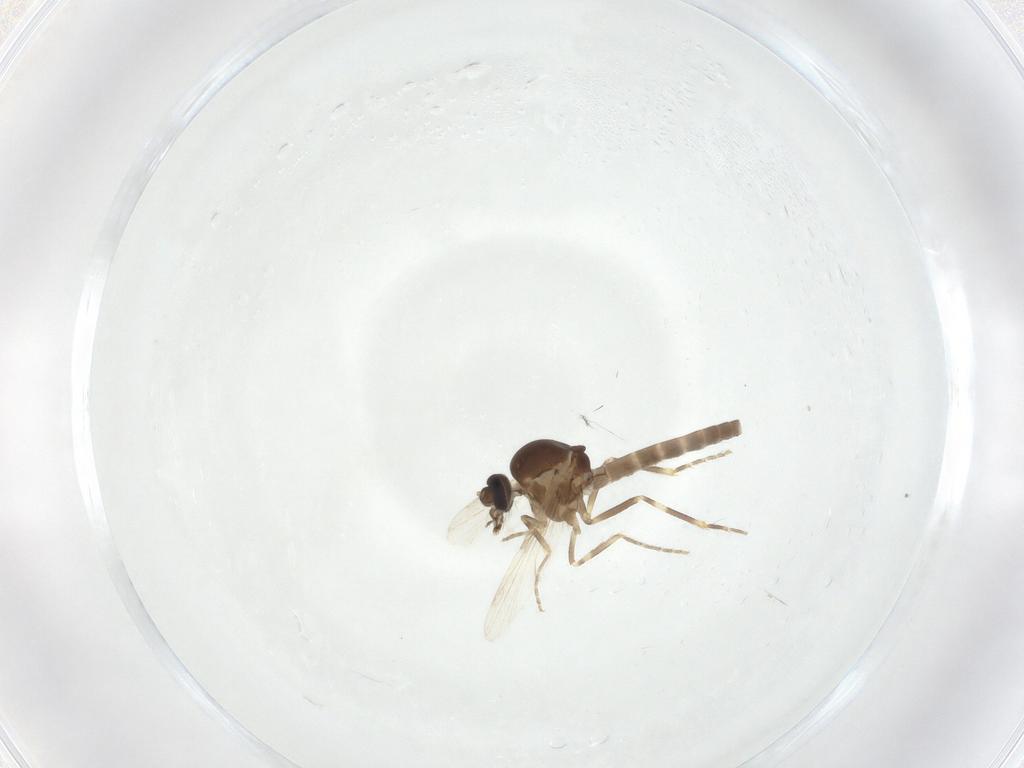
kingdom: Animalia
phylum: Arthropoda
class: Insecta
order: Diptera
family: Ceratopogonidae
